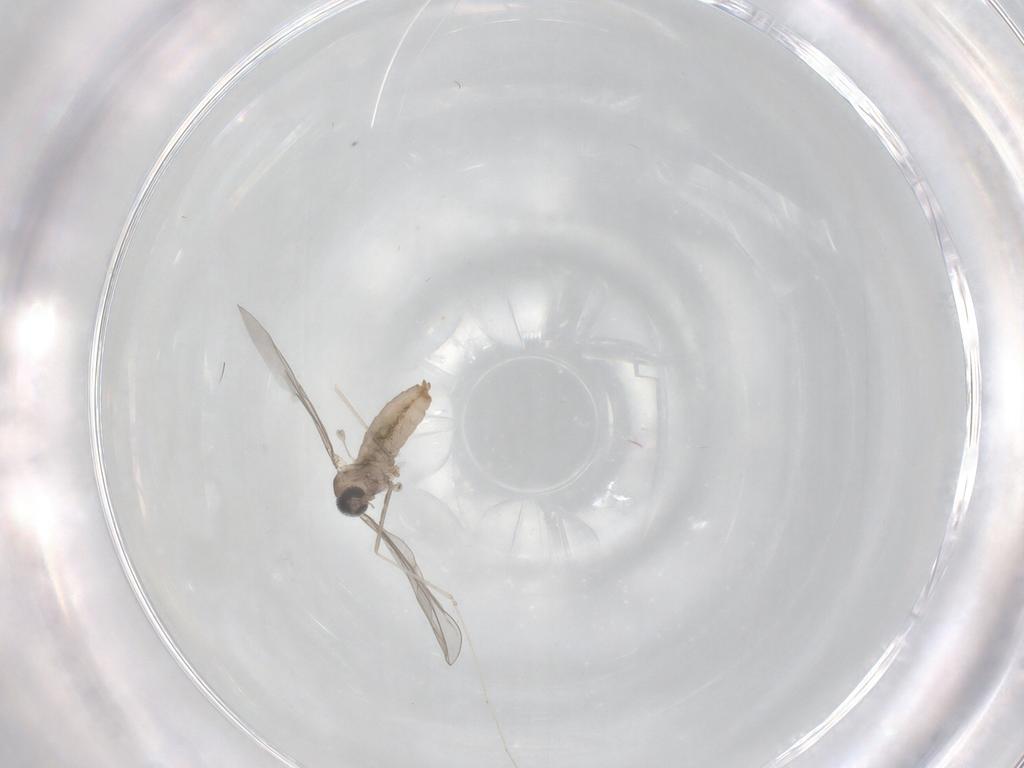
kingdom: Animalia
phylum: Arthropoda
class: Insecta
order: Diptera
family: Cecidomyiidae
